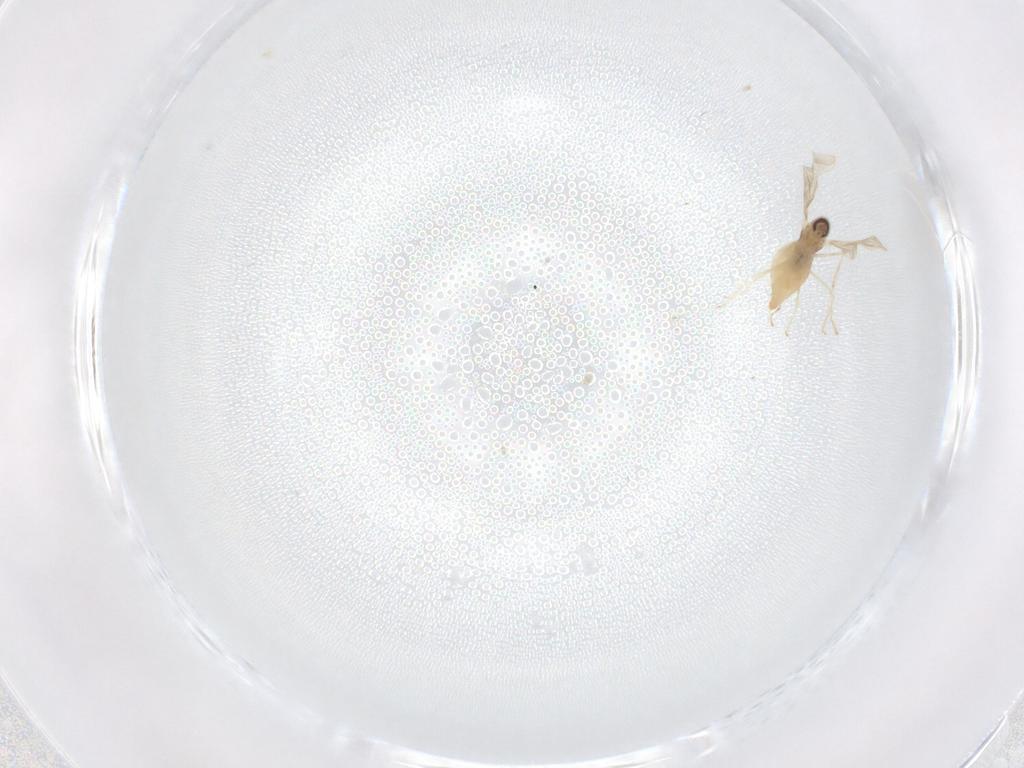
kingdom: Animalia
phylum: Arthropoda
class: Insecta
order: Diptera
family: Cecidomyiidae
